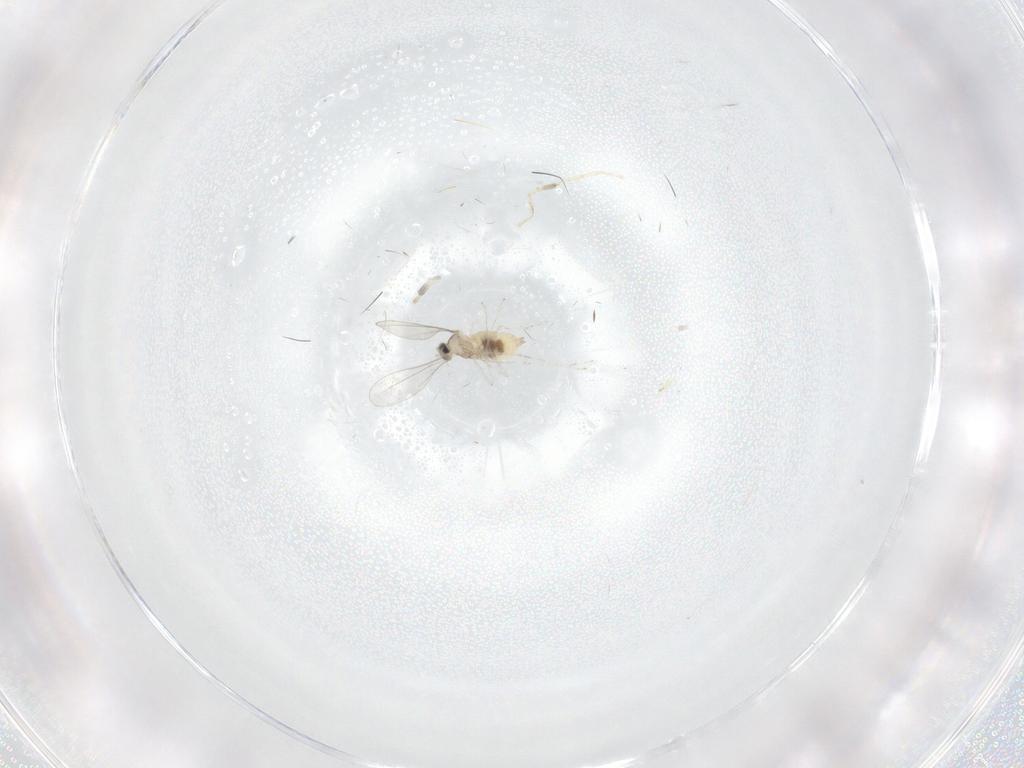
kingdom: Animalia
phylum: Arthropoda
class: Insecta
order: Diptera
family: Cecidomyiidae
